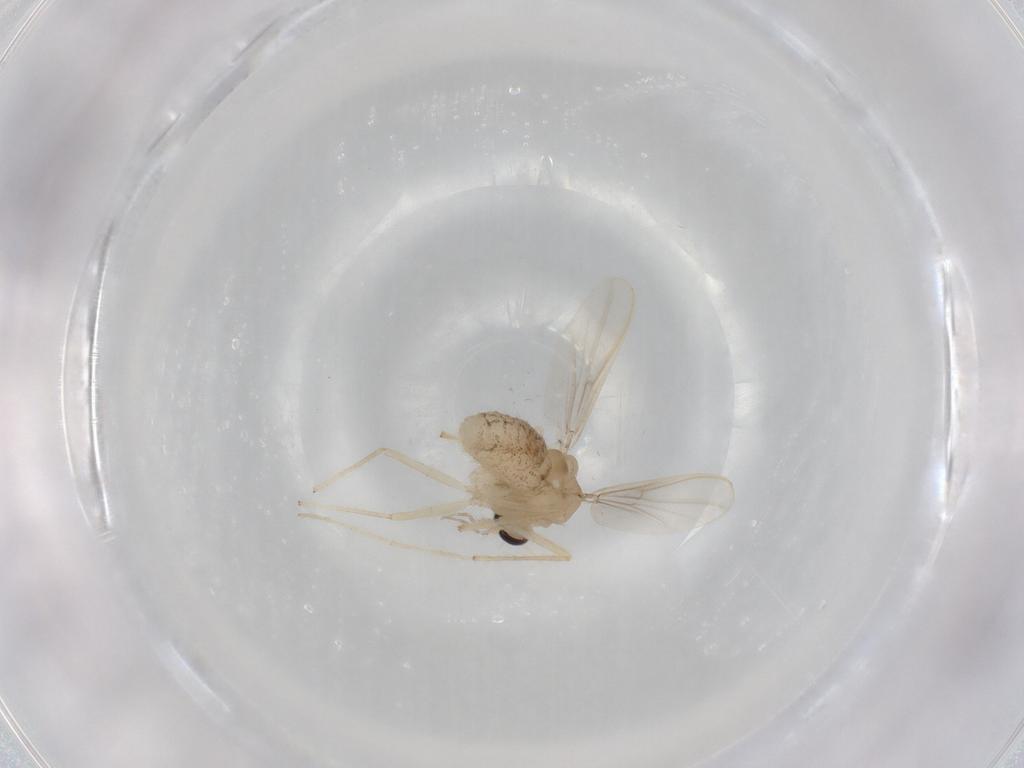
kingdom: Animalia
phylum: Arthropoda
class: Insecta
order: Diptera
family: Chironomidae
